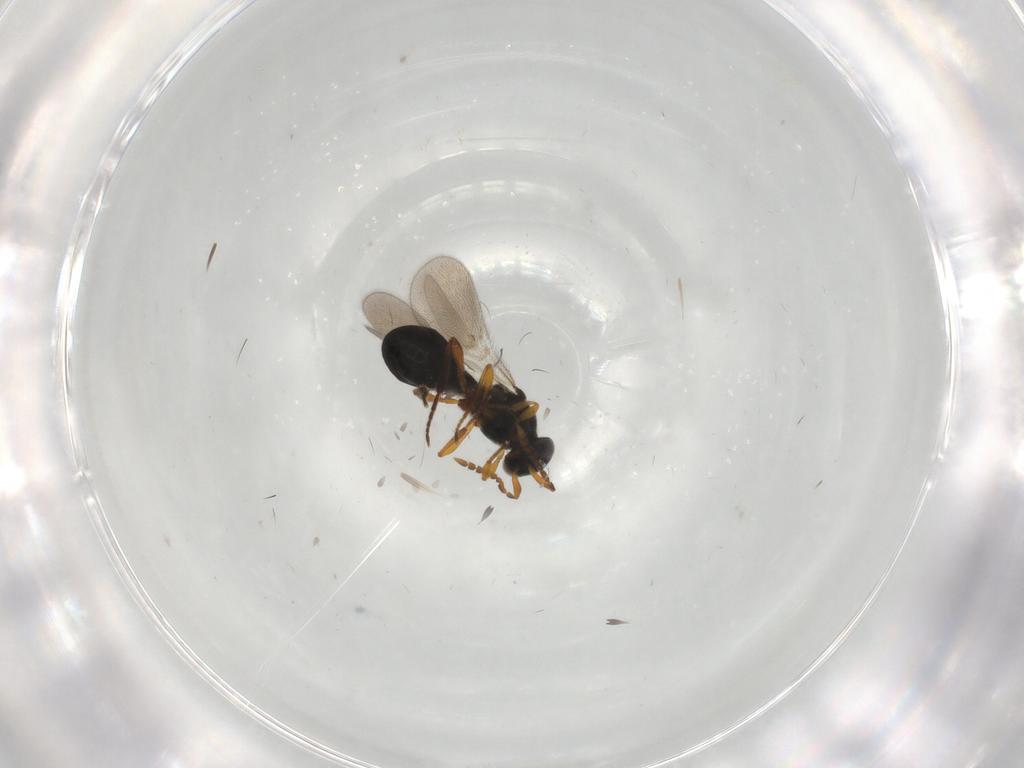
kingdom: Animalia
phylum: Arthropoda
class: Insecta
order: Hymenoptera
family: Platygastridae
